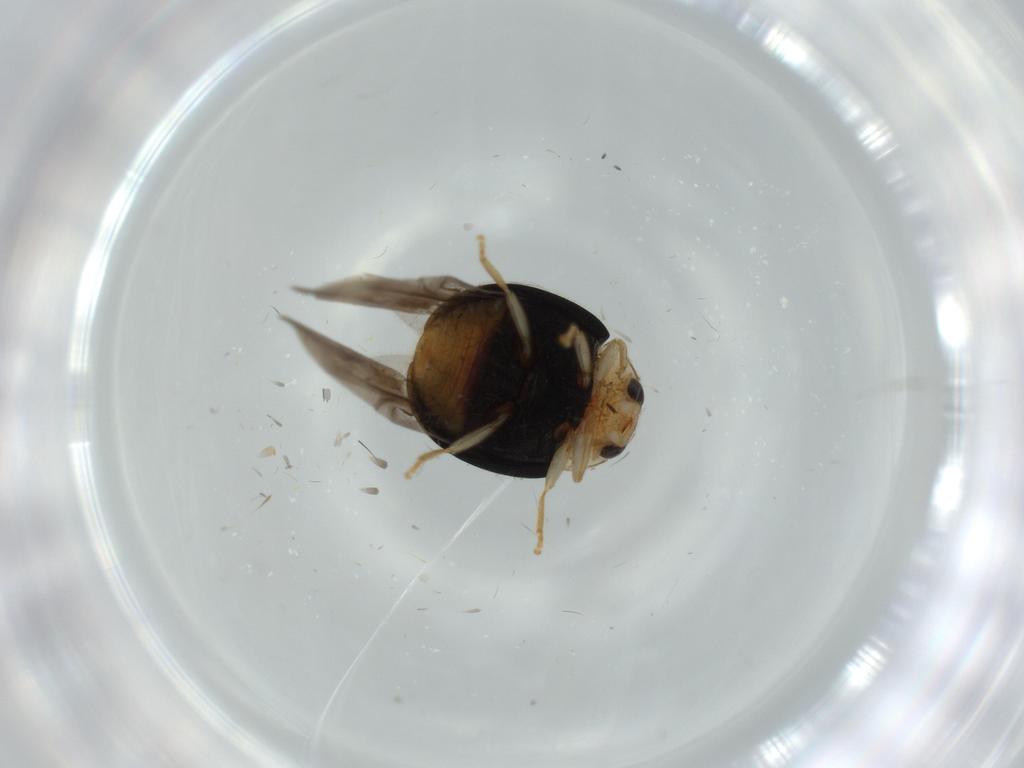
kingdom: Animalia
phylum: Arthropoda
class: Insecta
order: Coleoptera
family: Coccinellidae
